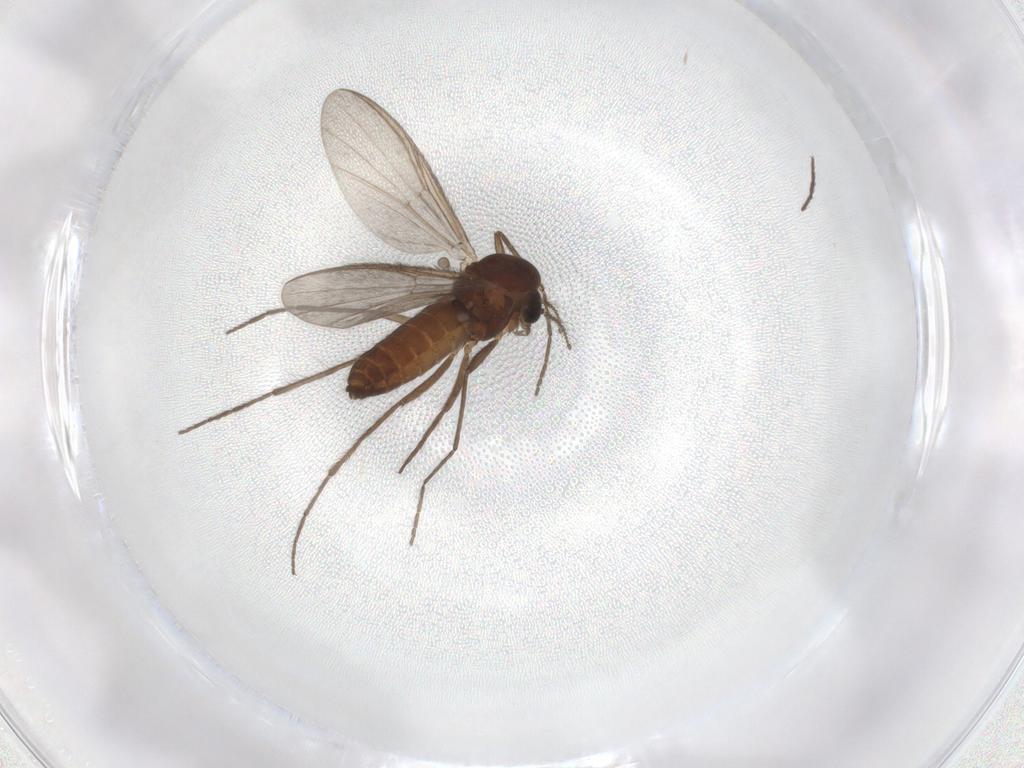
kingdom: Animalia
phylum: Arthropoda
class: Insecta
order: Diptera
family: Chironomidae
